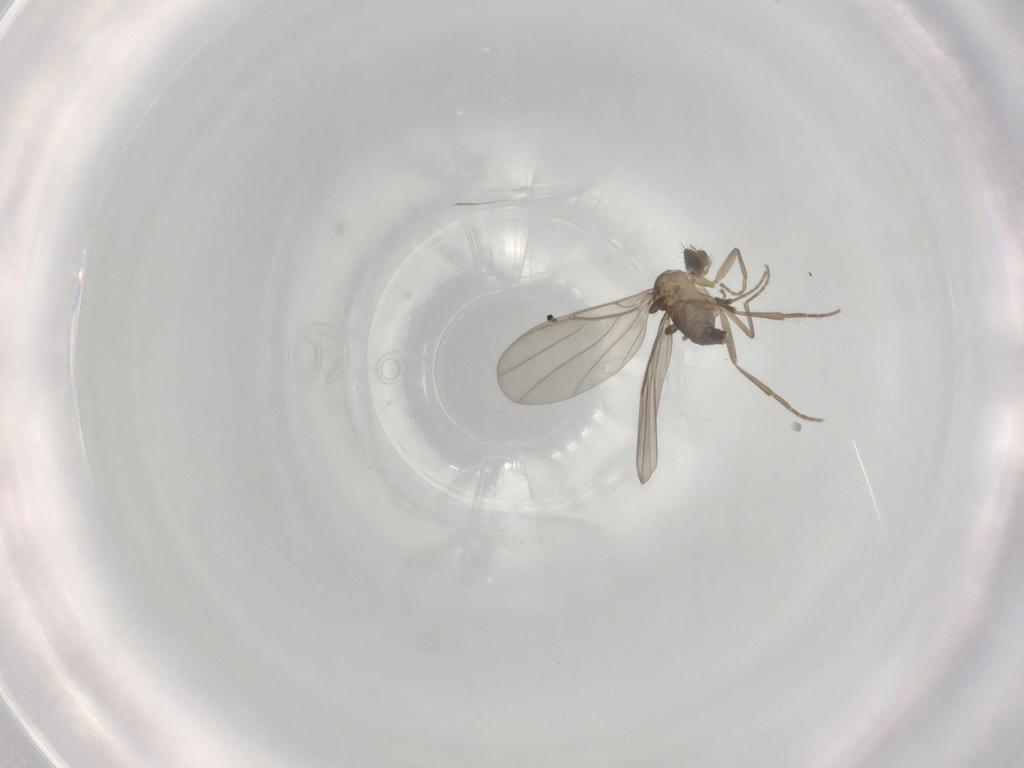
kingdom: Animalia
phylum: Arthropoda
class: Insecta
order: Diptera
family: Phoridae
